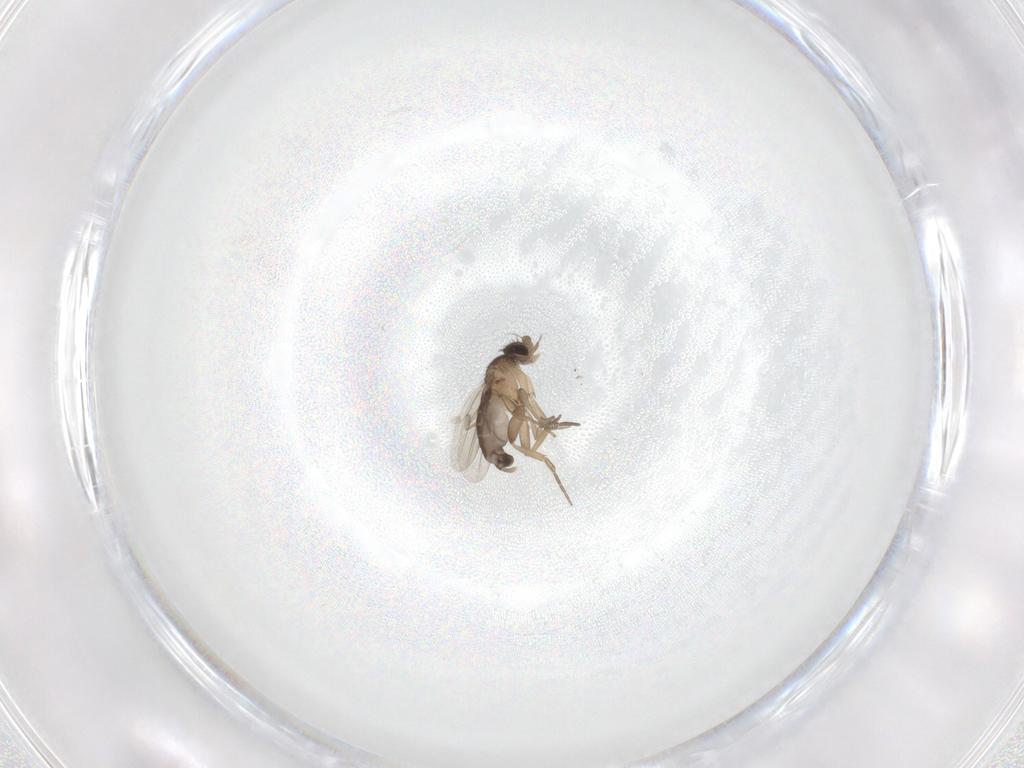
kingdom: Animalia
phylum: Arthropoda
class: Insecta
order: Diptera
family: Phoridae
